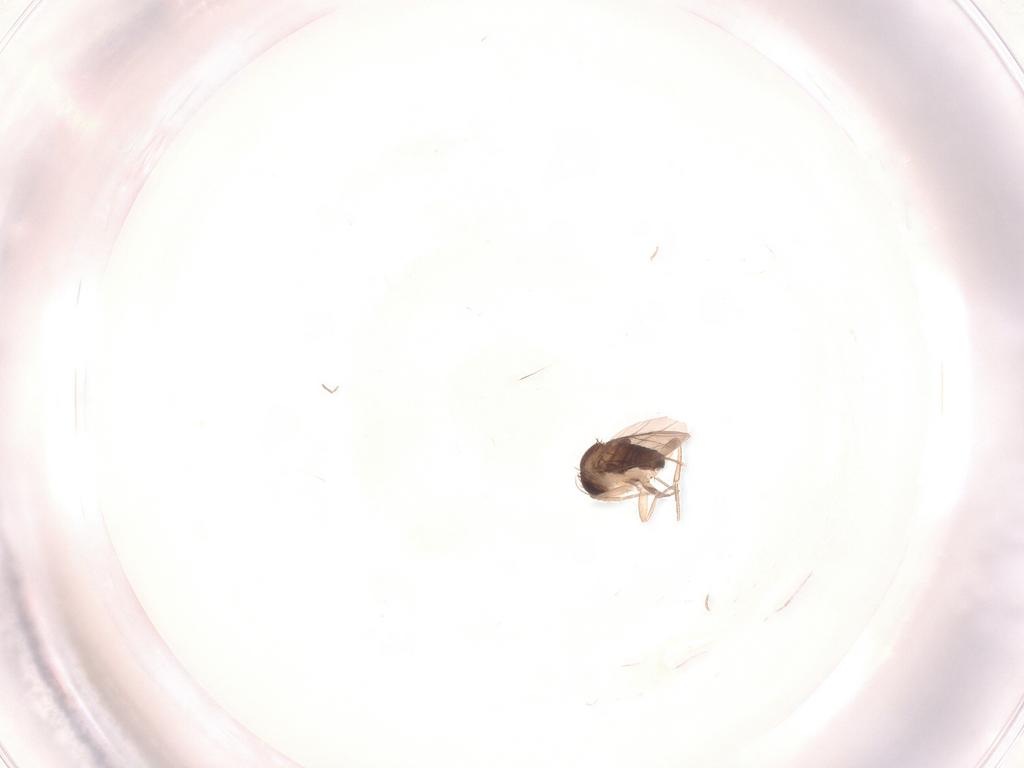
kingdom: Animalia
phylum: Arthropoda
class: Insecta
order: Diptera
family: Phoridae
